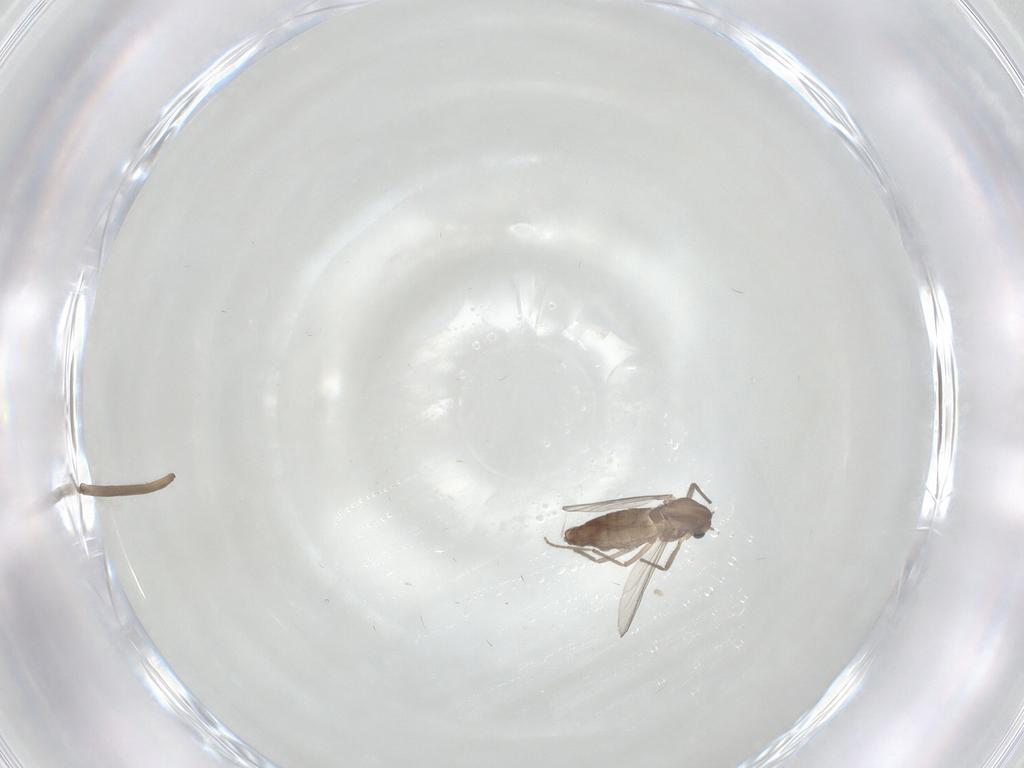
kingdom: Animalia
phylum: Arthropoda
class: Insecta
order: Diptera
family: Chironomidae
